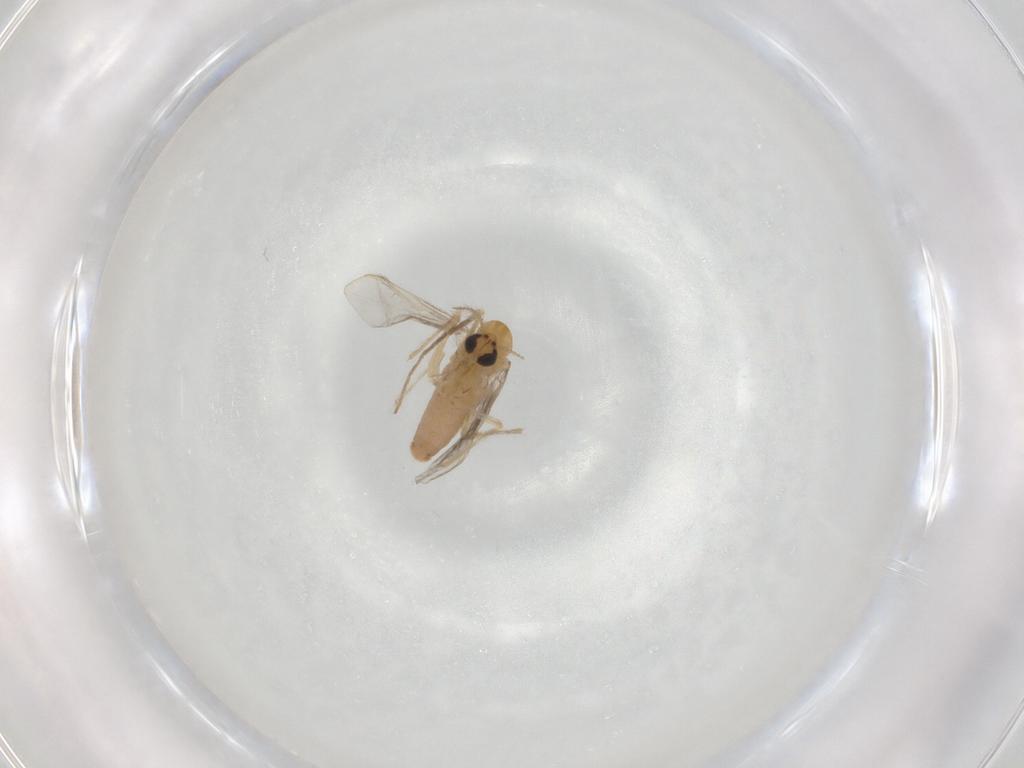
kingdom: Animalia
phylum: Arthropoda
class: Insecta
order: Diptera
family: Chironomidae
